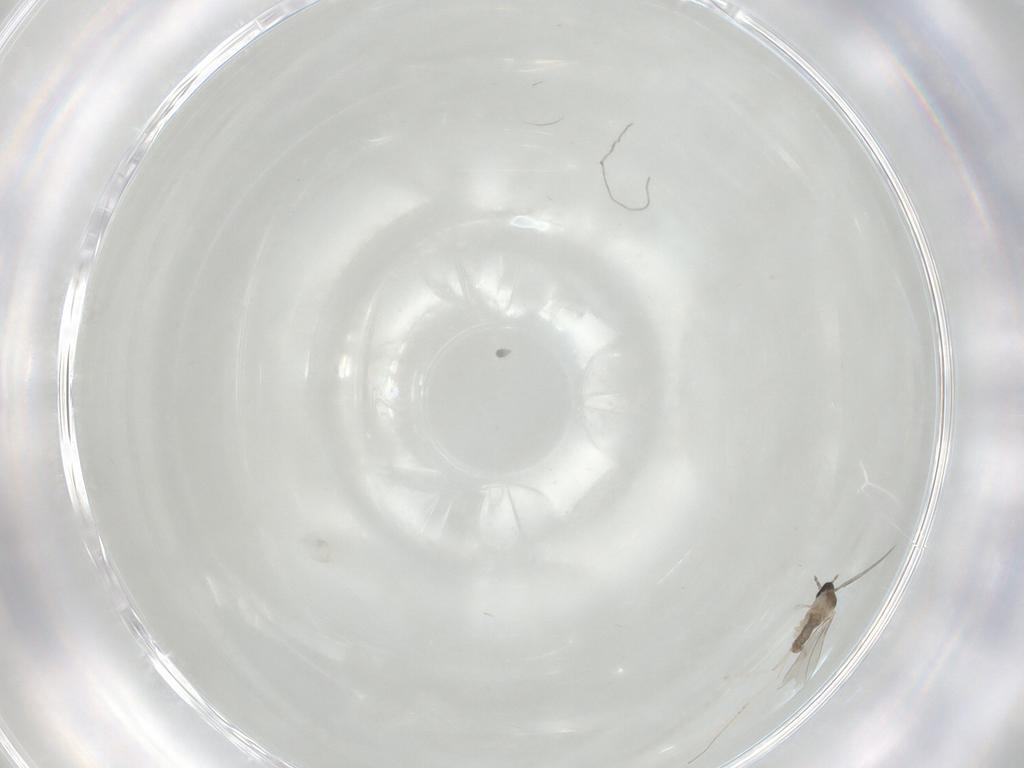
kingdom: Animalia
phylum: Arthropoda
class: Insecta
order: Diptera
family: Cecidomyiidae
